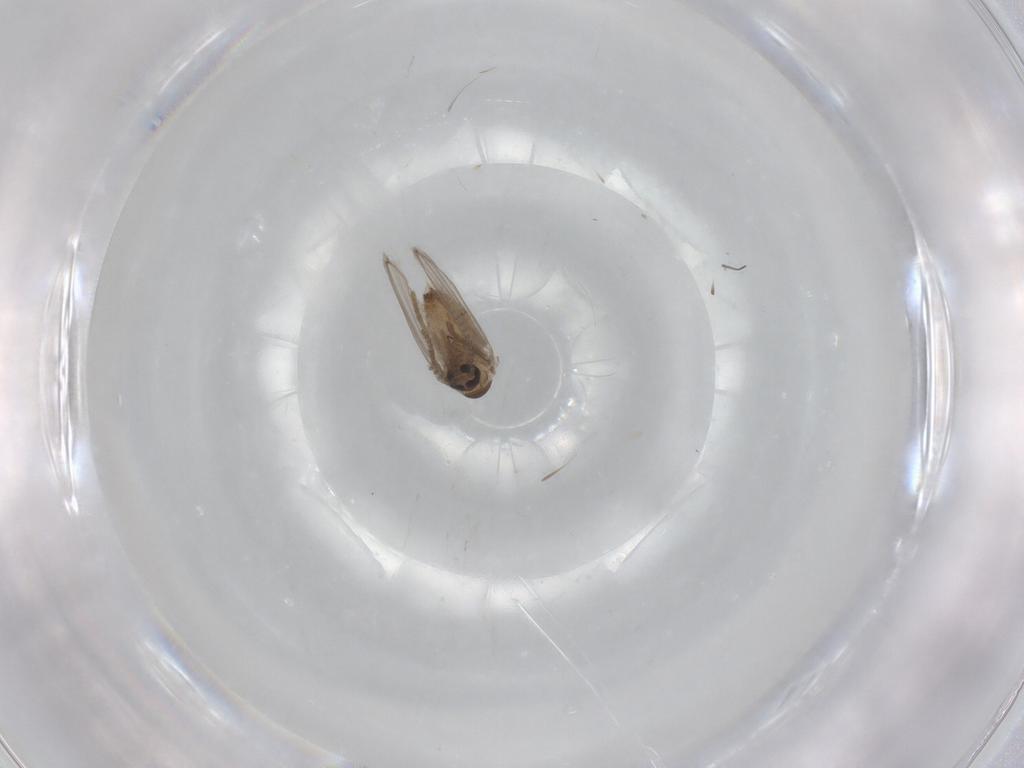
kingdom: Animalia
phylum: Arthropoda
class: Insecta
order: Diptera
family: Psychodidae
